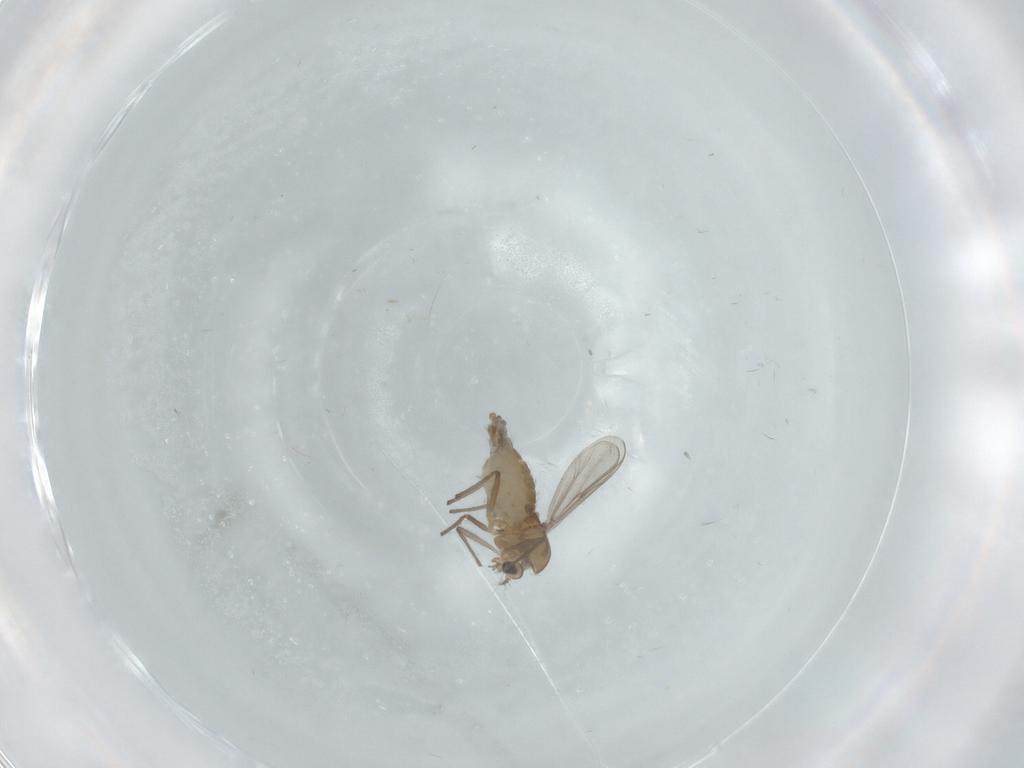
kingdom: Animalia
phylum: Arthropoda
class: Insecta
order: Diptera
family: Chironomidae
